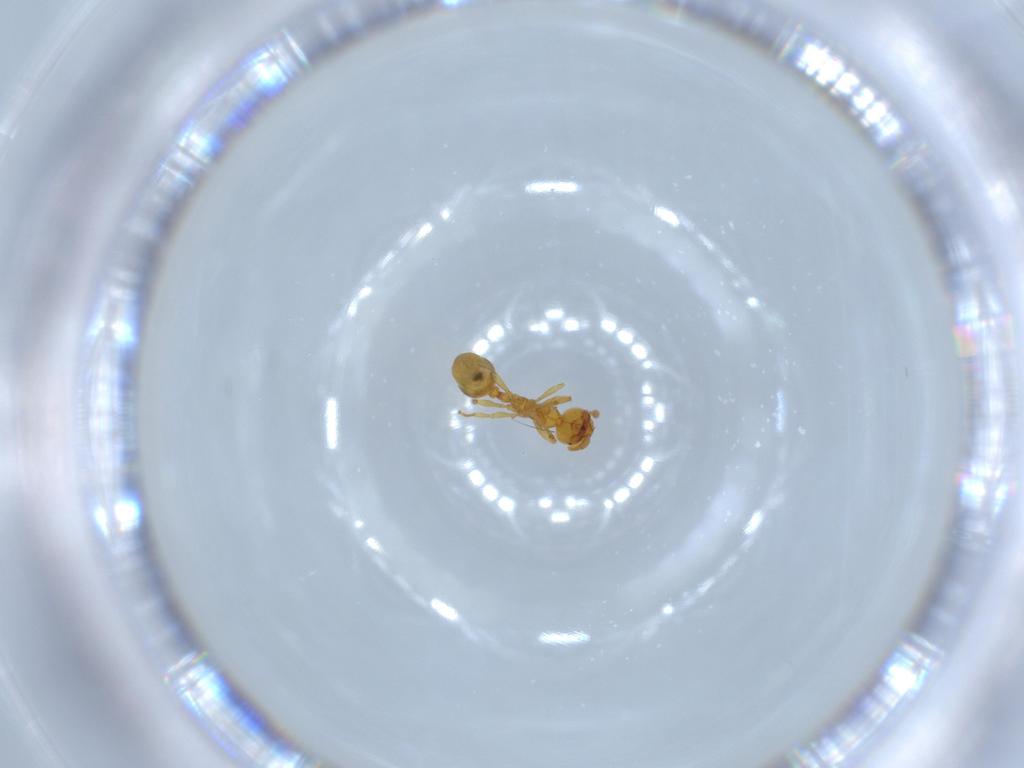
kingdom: Animalia
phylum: Arthropoda
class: Insecta
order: Hymenoptera
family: Formicidae
